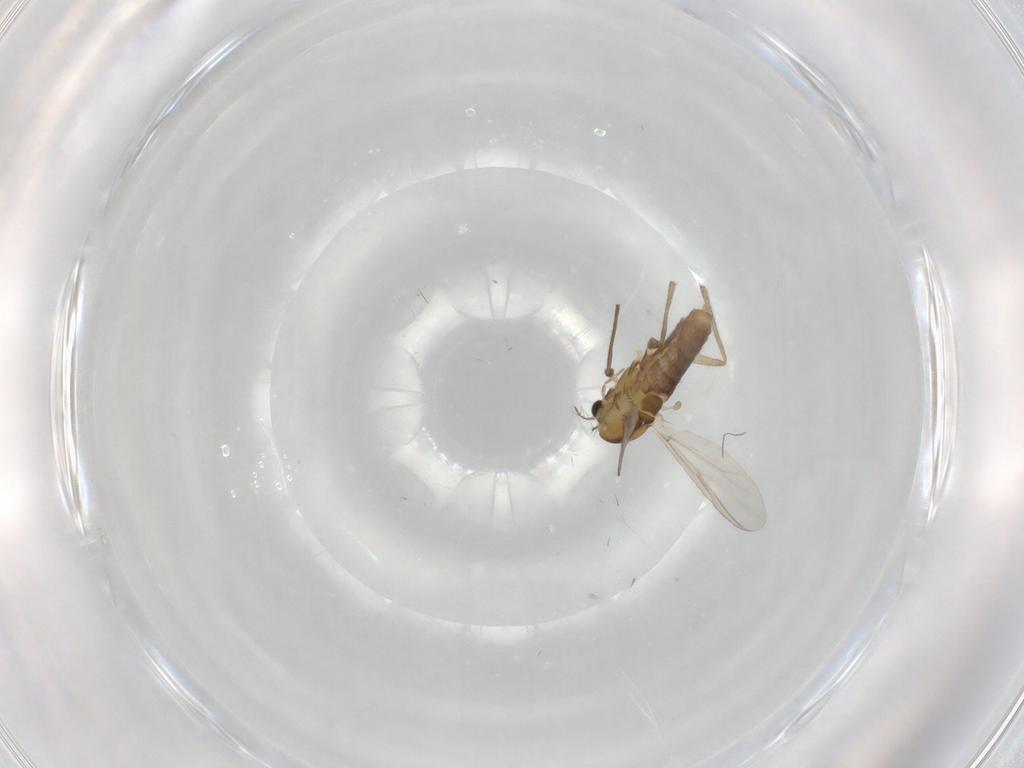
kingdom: Animalia
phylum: Arthropoda
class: Insecta
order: Diptera
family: Chironomidae
